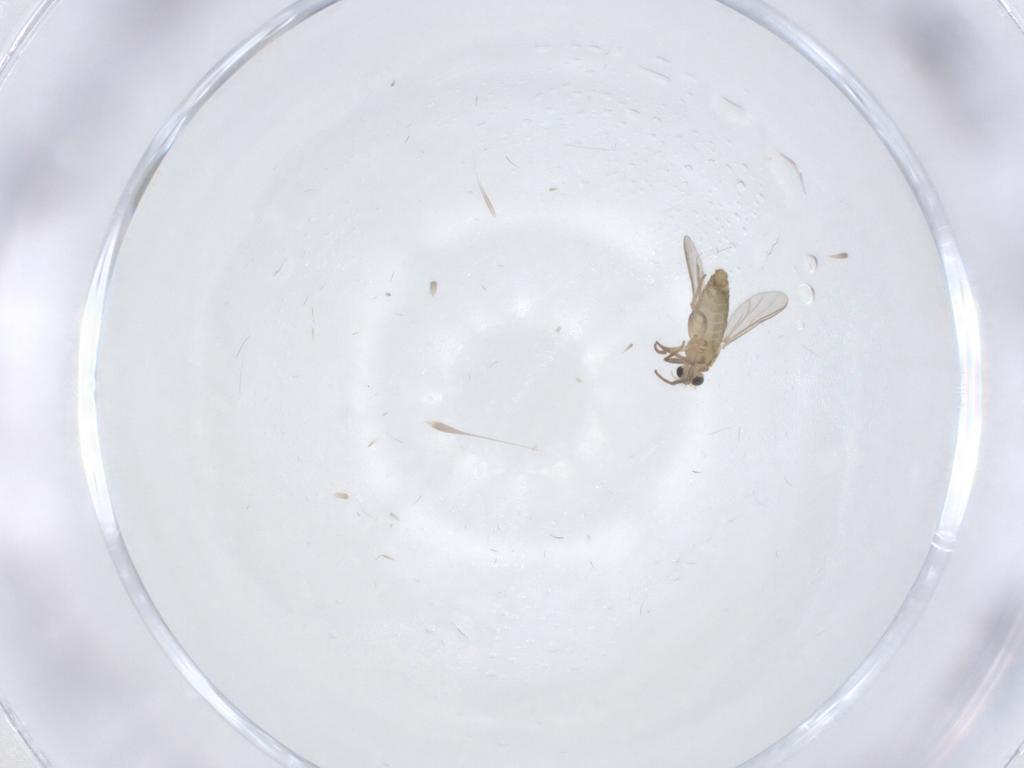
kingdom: Animalia
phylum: Arthropoda
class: Insecta
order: Diptera
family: Chironomidae
